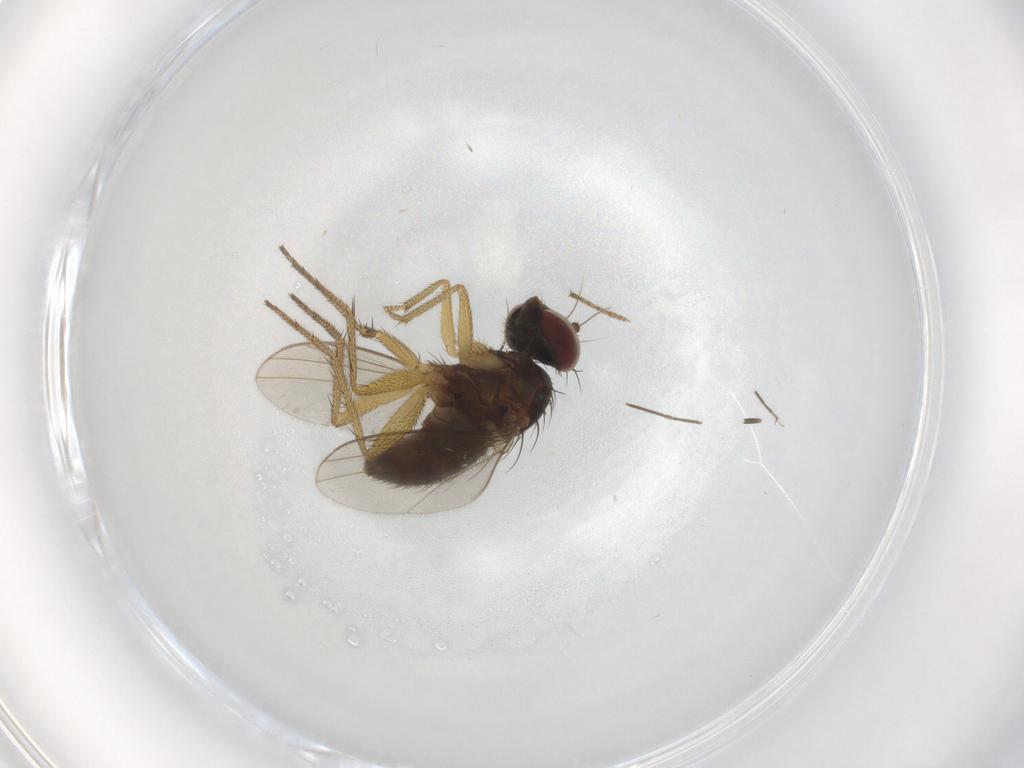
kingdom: Animalia
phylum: Arthropoda
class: Insecta
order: Diptera
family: Dolichopodidae
